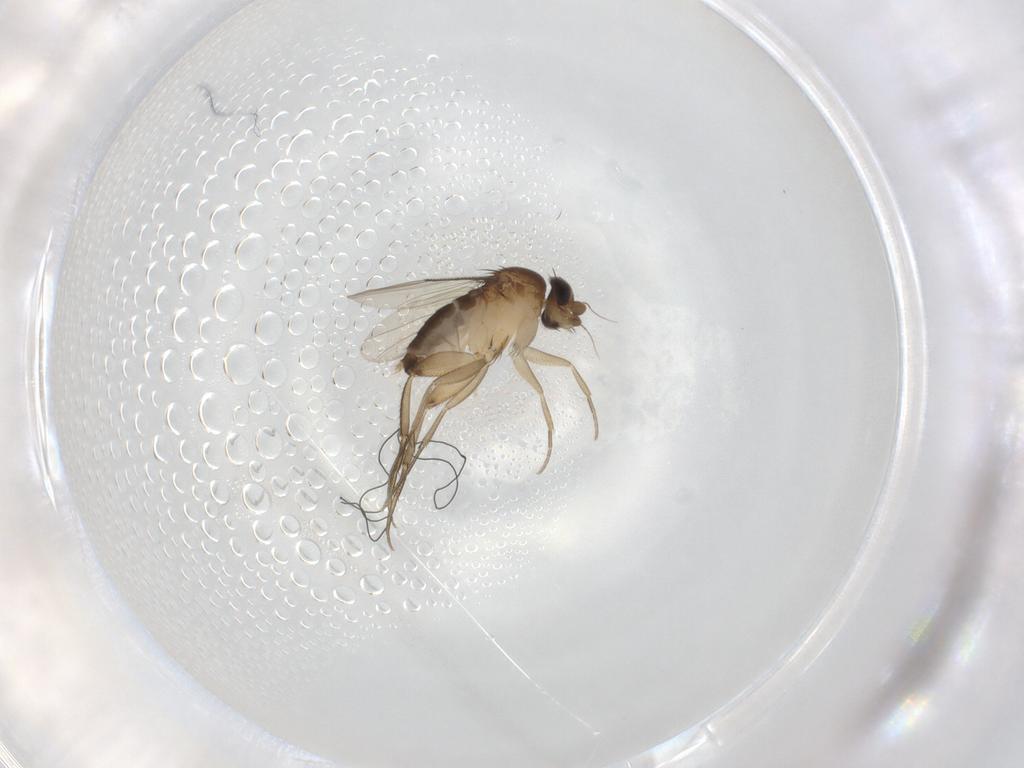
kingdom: Animalia
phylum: Arthropoda
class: Insecta
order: Diptera
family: Phoridae
